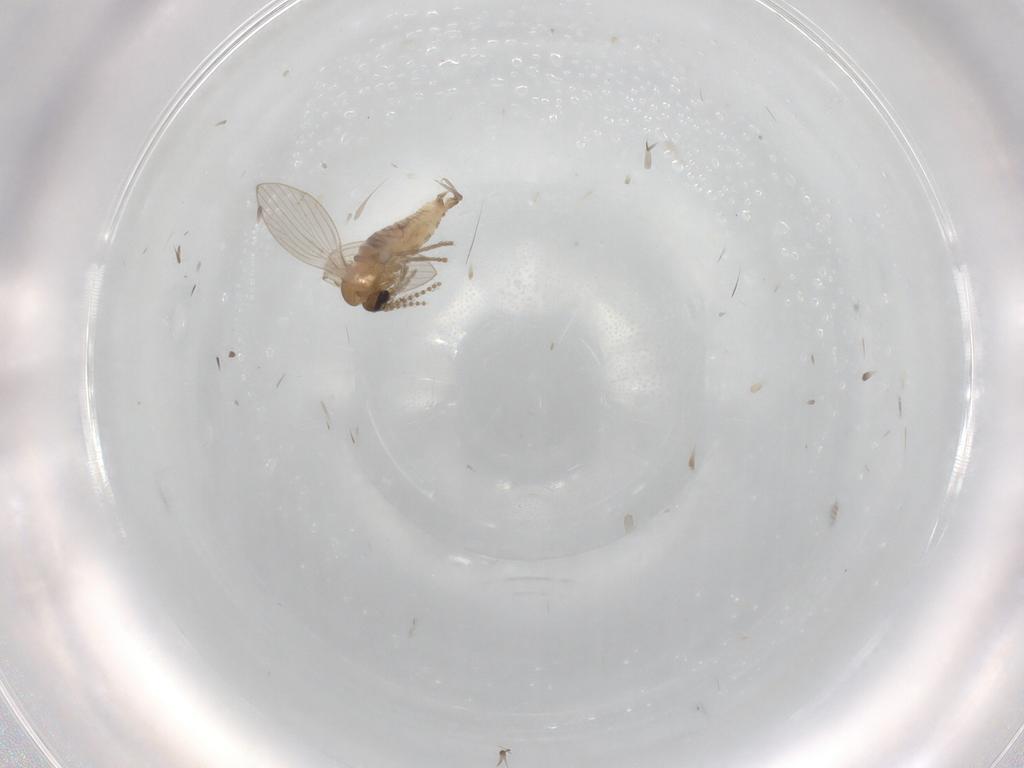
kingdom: Animalia
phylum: Arthropoda
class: Insecta
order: Diptera
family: Psychodidae
